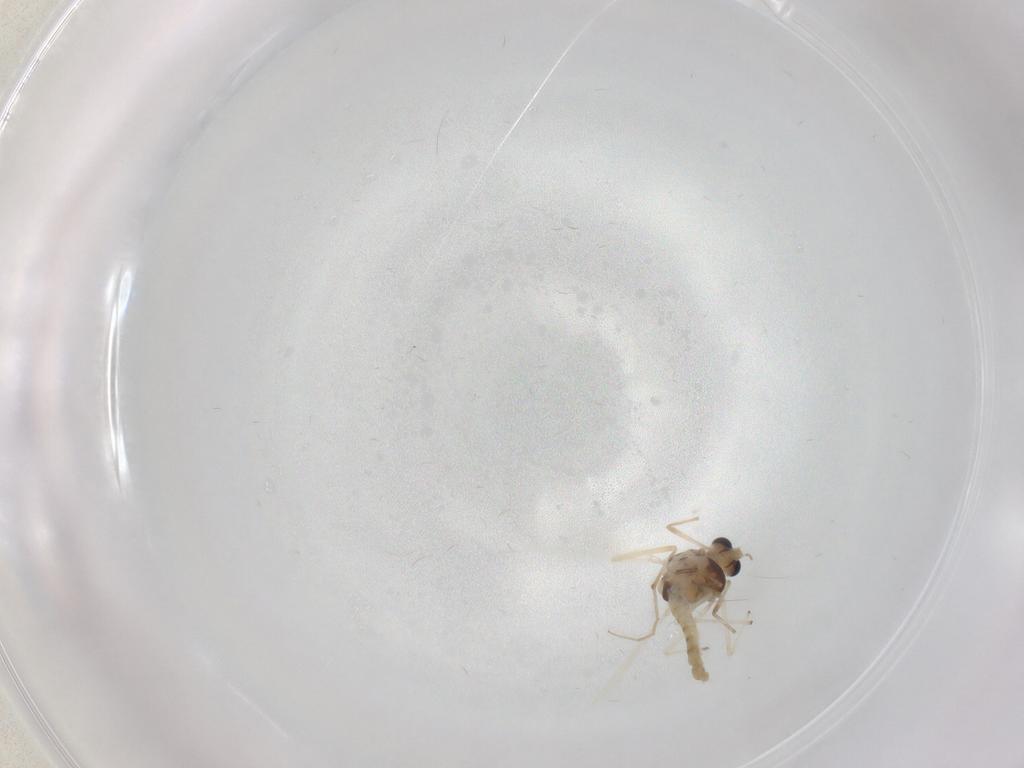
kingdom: Animalia
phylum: Arthropoda
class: Insecta
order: Diptera
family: Chironomidae
